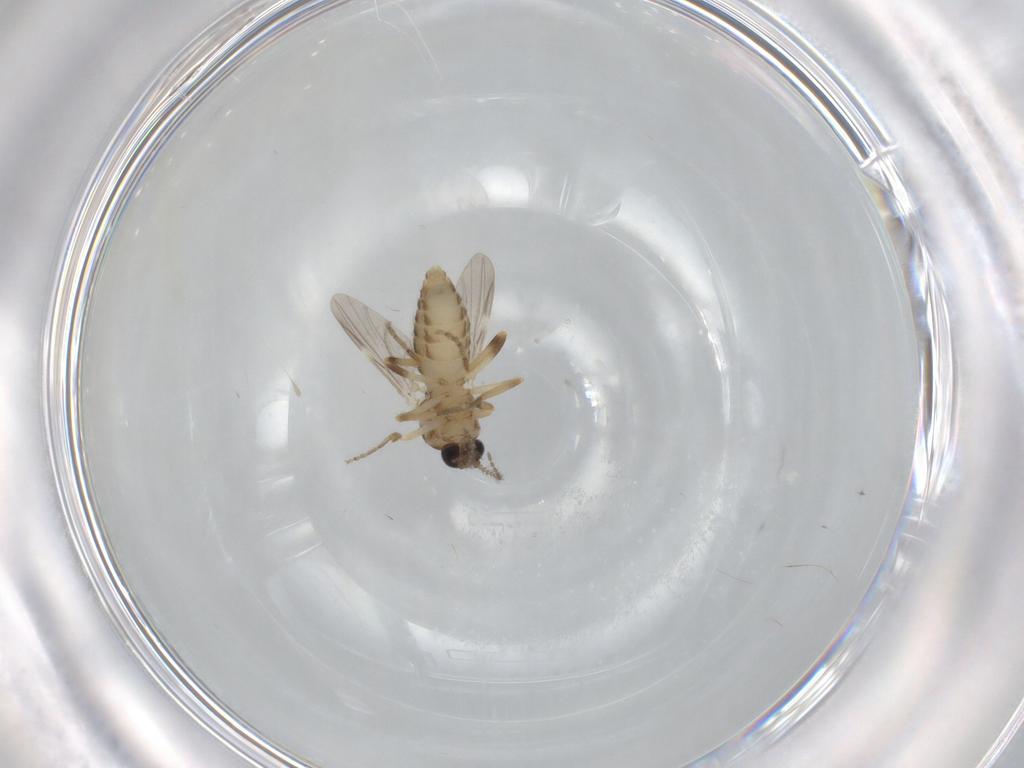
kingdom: Animalia
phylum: Arthropoda
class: Insecta
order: Diptera
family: Ceratopogonidae
